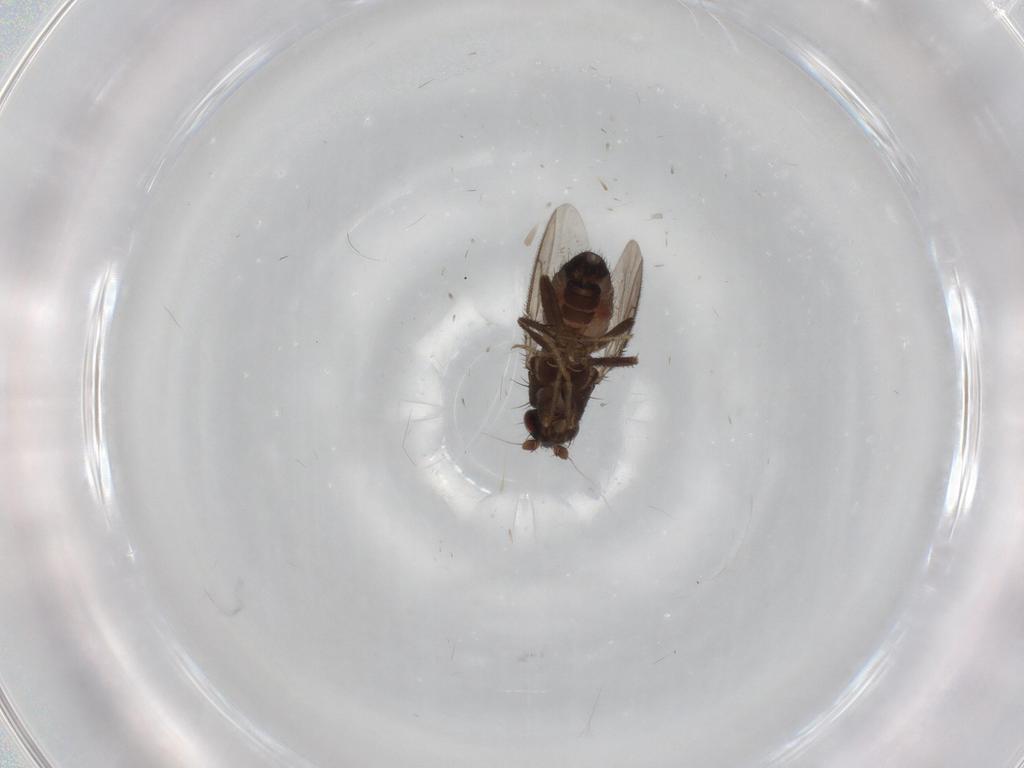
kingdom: Animalia
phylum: Arthropoda
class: Insecta
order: Diptera
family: Sphaeroceridae
